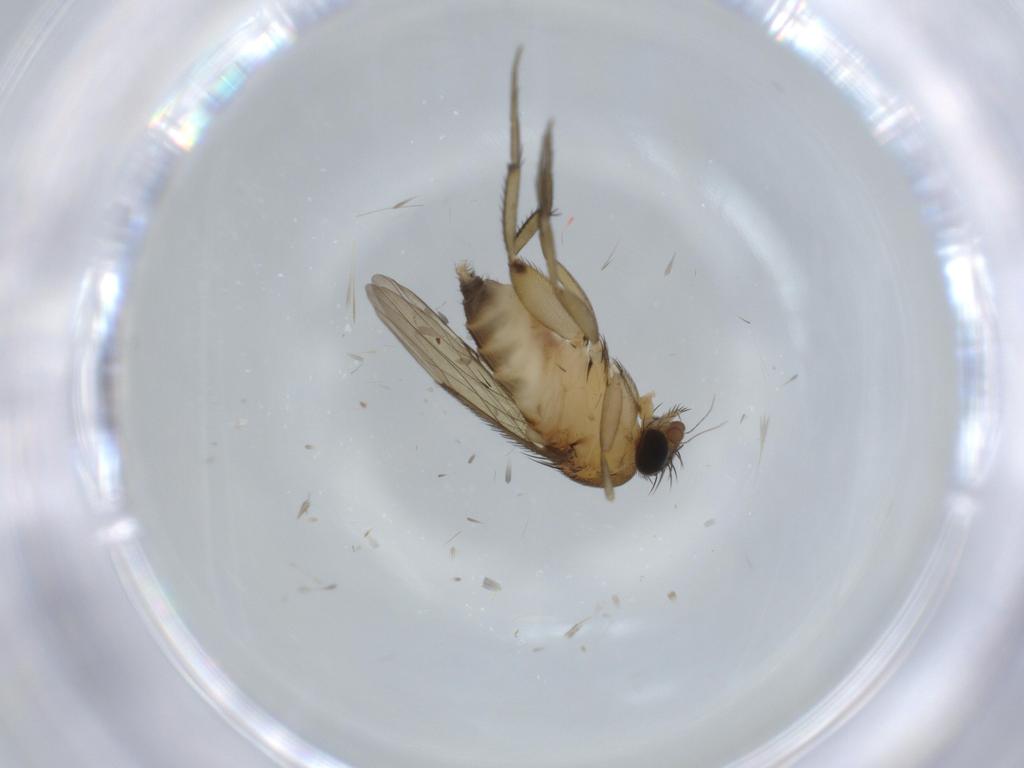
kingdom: Animalia
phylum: Arthropoda
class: Insecta
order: Diptera
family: Phoridae
